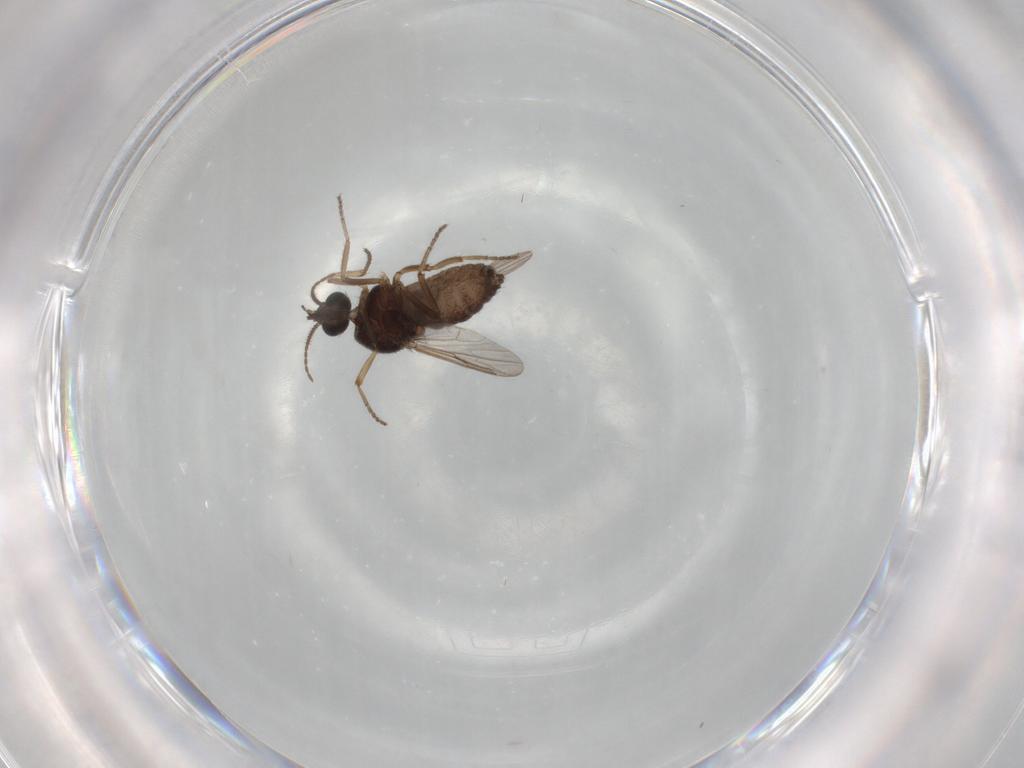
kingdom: Animalia
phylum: Arthropoda
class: Insecta
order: Diptera
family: Ceratopogonidae
